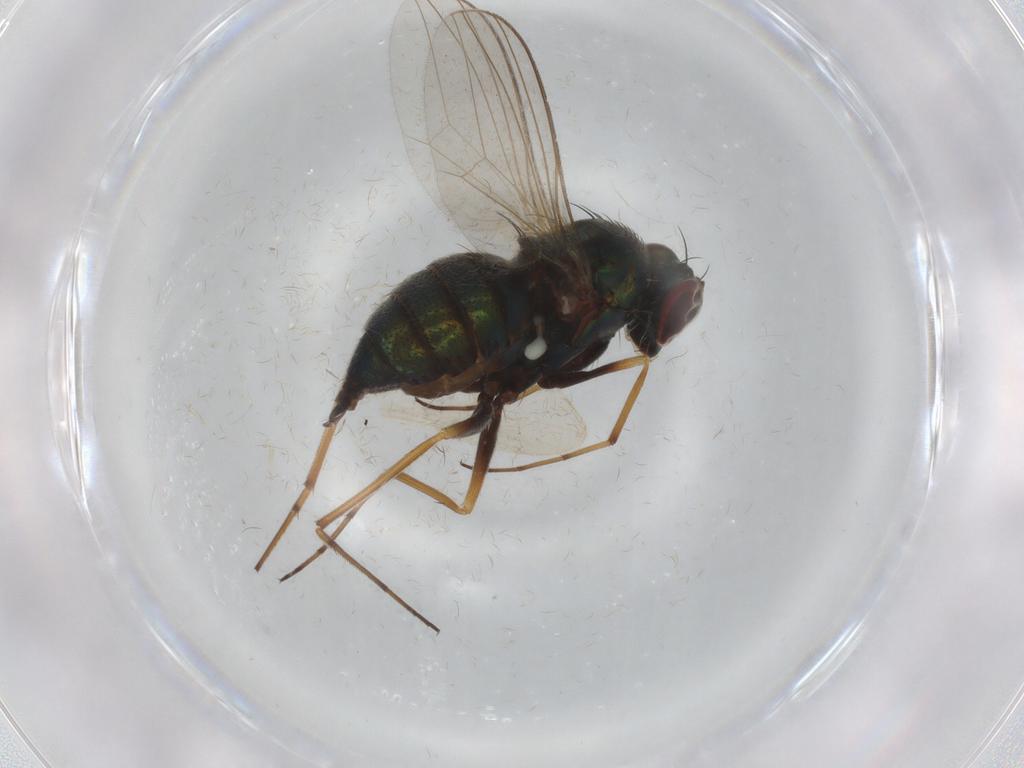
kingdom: Animalia
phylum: Arthropoda
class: Insecta
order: Diptera
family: Dolichopodidae
